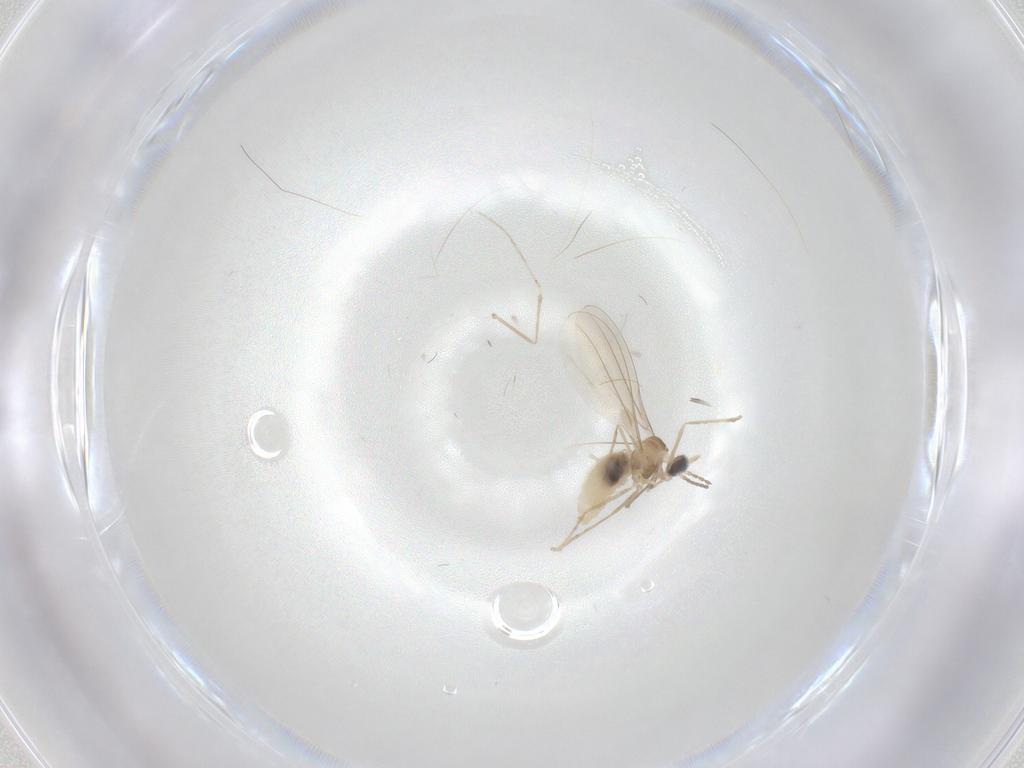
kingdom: Animalia
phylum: Arthropoda
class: Insecta
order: Diptera
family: Cecidomyiidae
